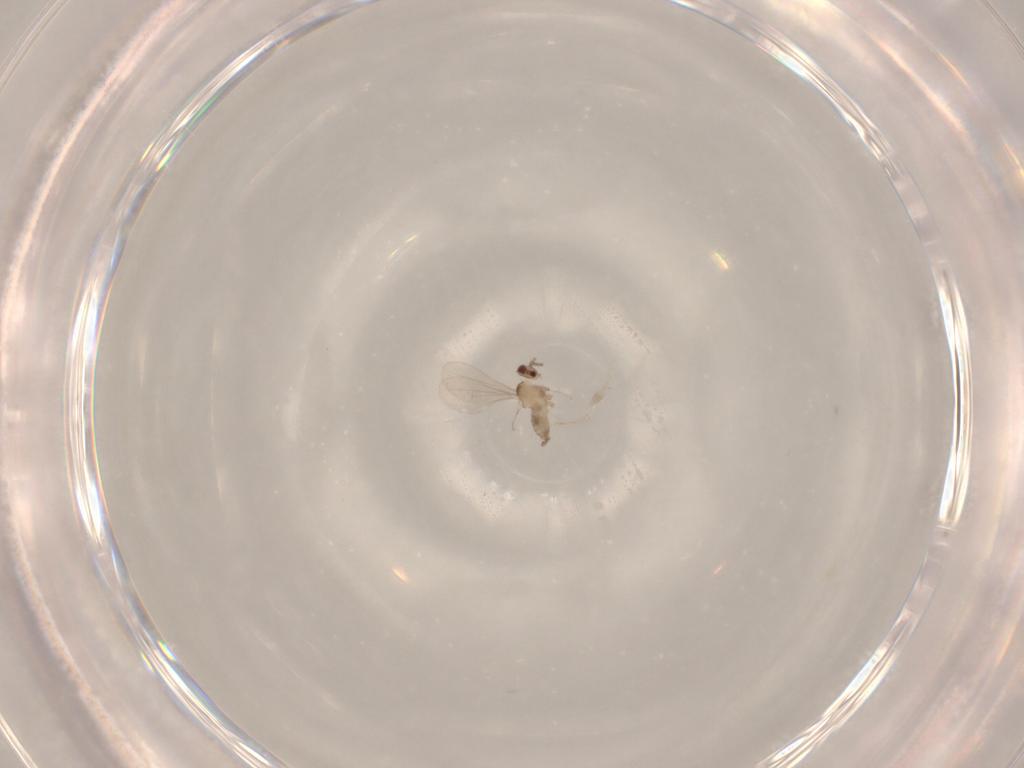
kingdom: Animalia
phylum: Arthropoda
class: Insecta
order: Diptera
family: Cecidomyiidae
